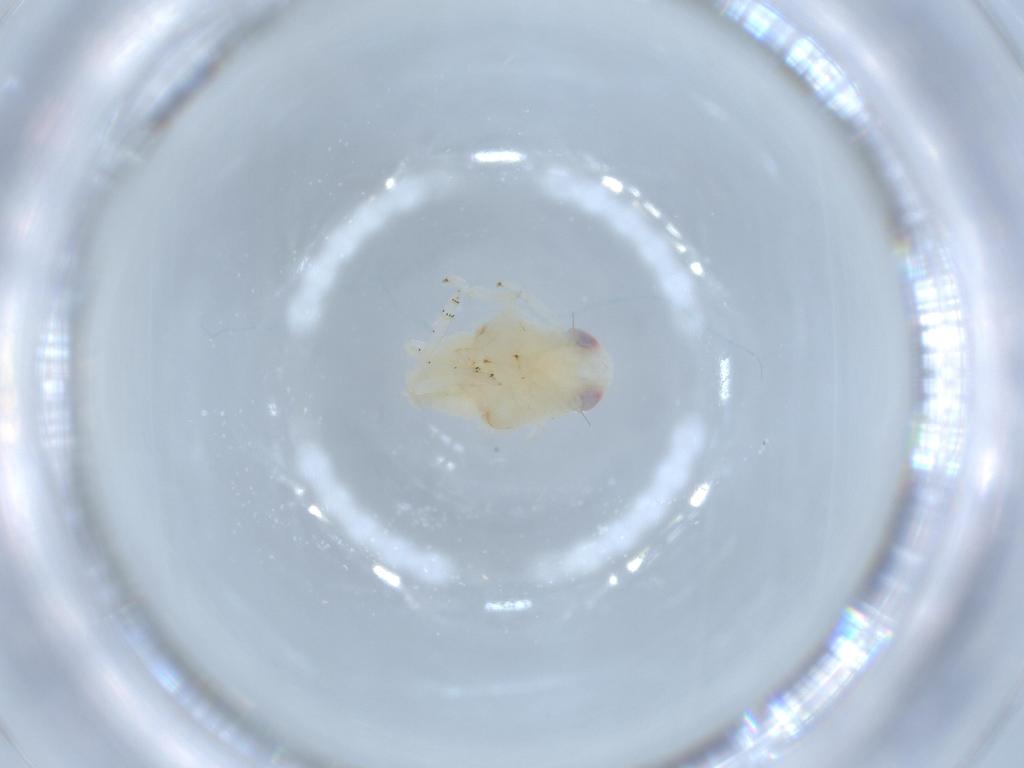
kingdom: Animalia
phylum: Arthropoda
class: Insecta
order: Hemiptera
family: Nogodinidae
